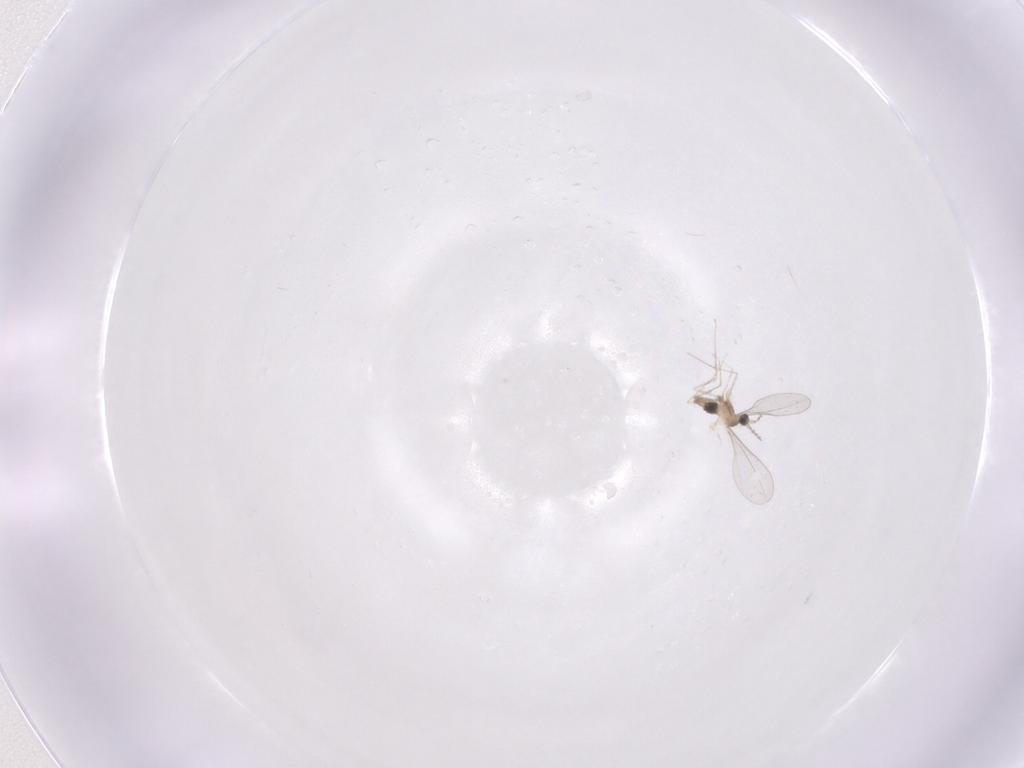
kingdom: Animalia
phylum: Arthropoda
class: Insecta
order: Diptera
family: Cecidomyiidae
